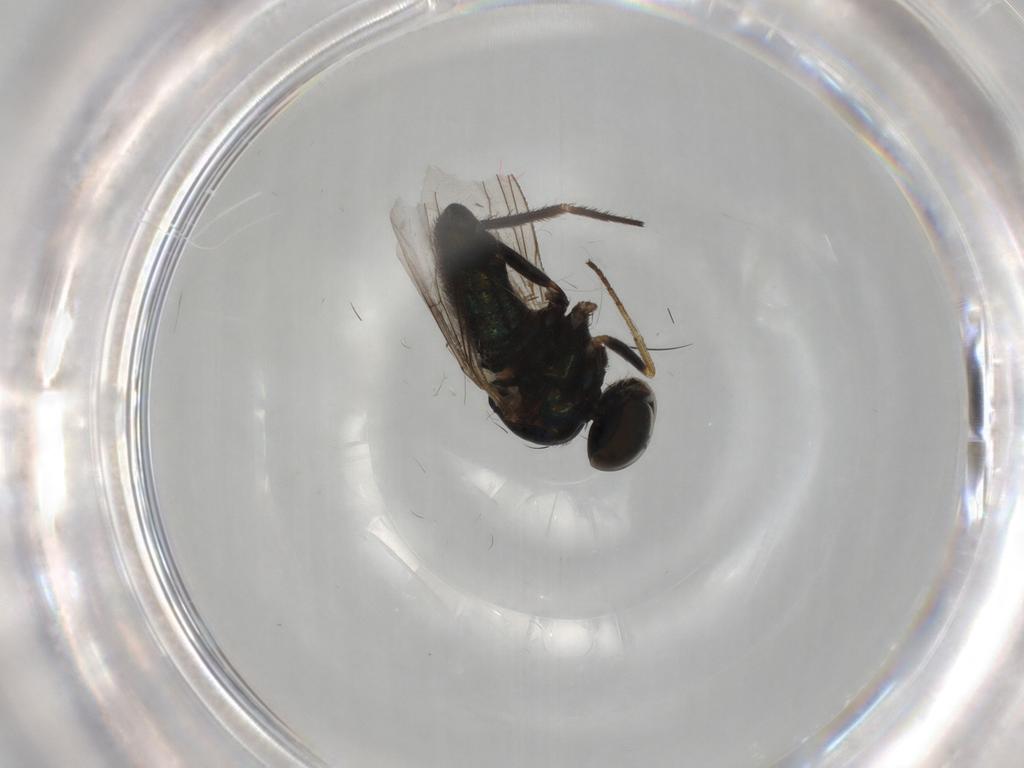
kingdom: Animalia
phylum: Arthropoda
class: Insecta
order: Diptera
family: Dolichopodidae
